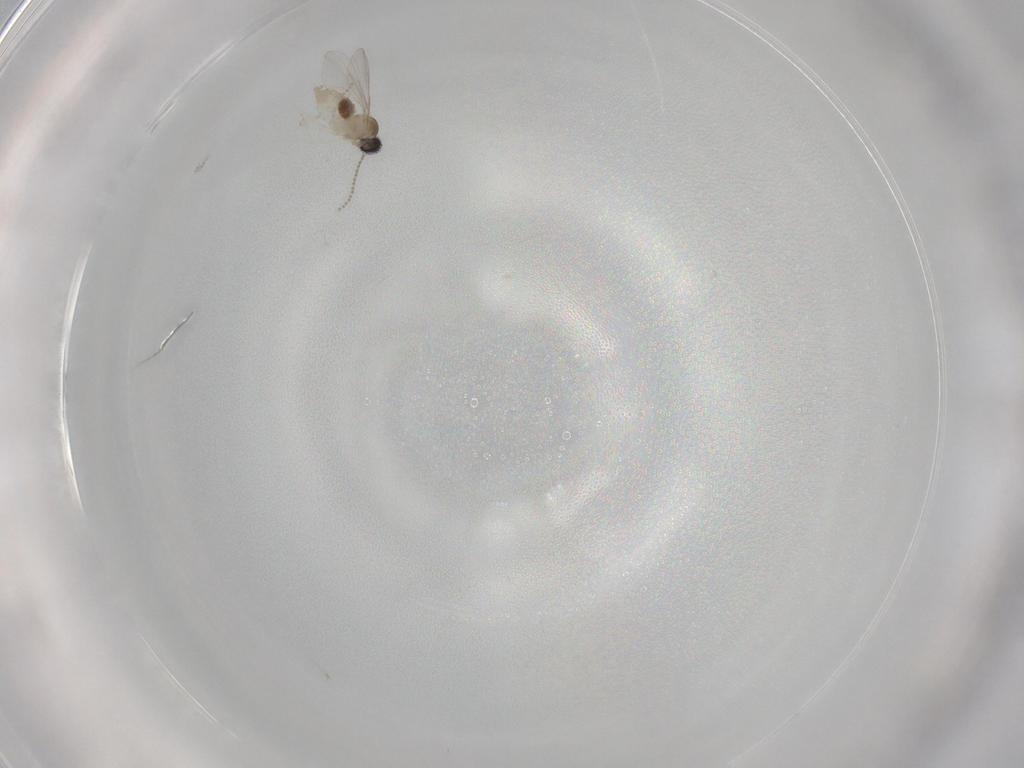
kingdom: Animalia
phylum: Arthropoda
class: Insecta
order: Diptera
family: Cecidomyiidae
